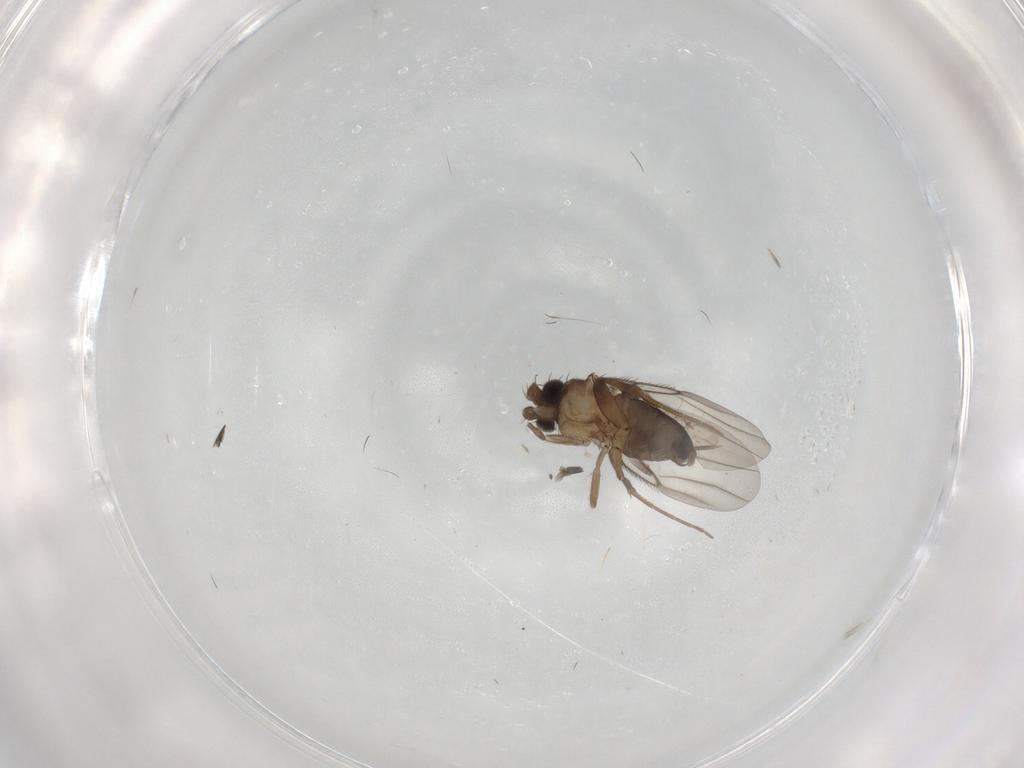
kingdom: Animalia
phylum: Arthropoda
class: Insecta
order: Diptera
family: Phoridae
